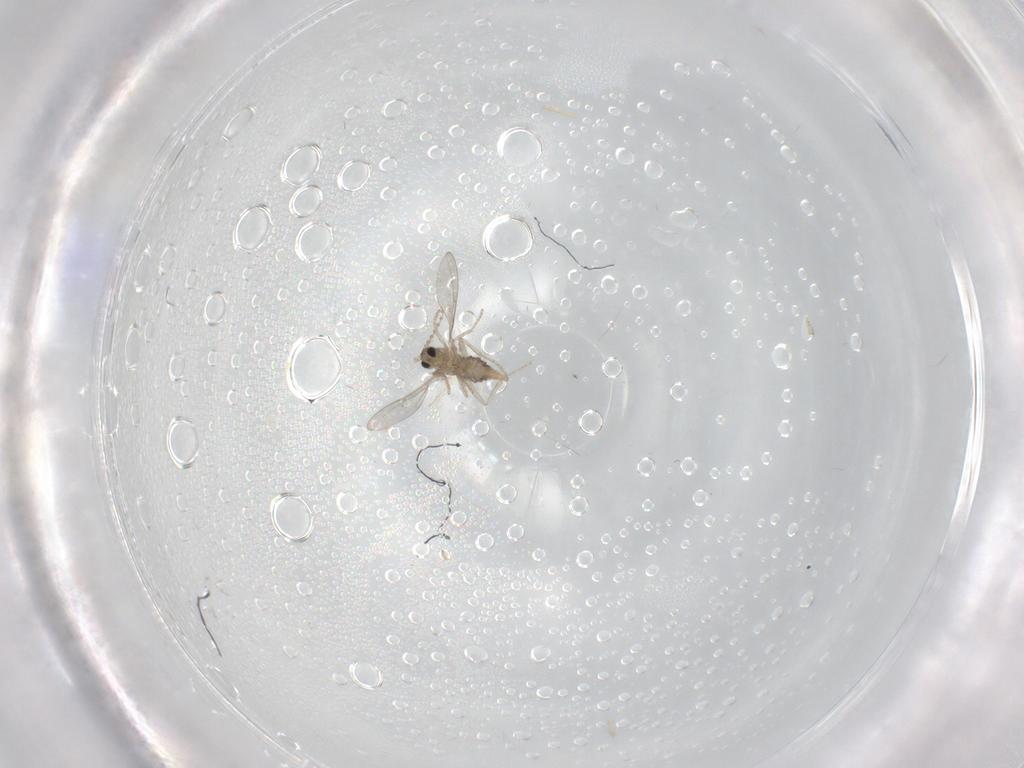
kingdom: Animalia
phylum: Arthropoda
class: Insecta
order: Diptera
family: Cecidomyiidae
